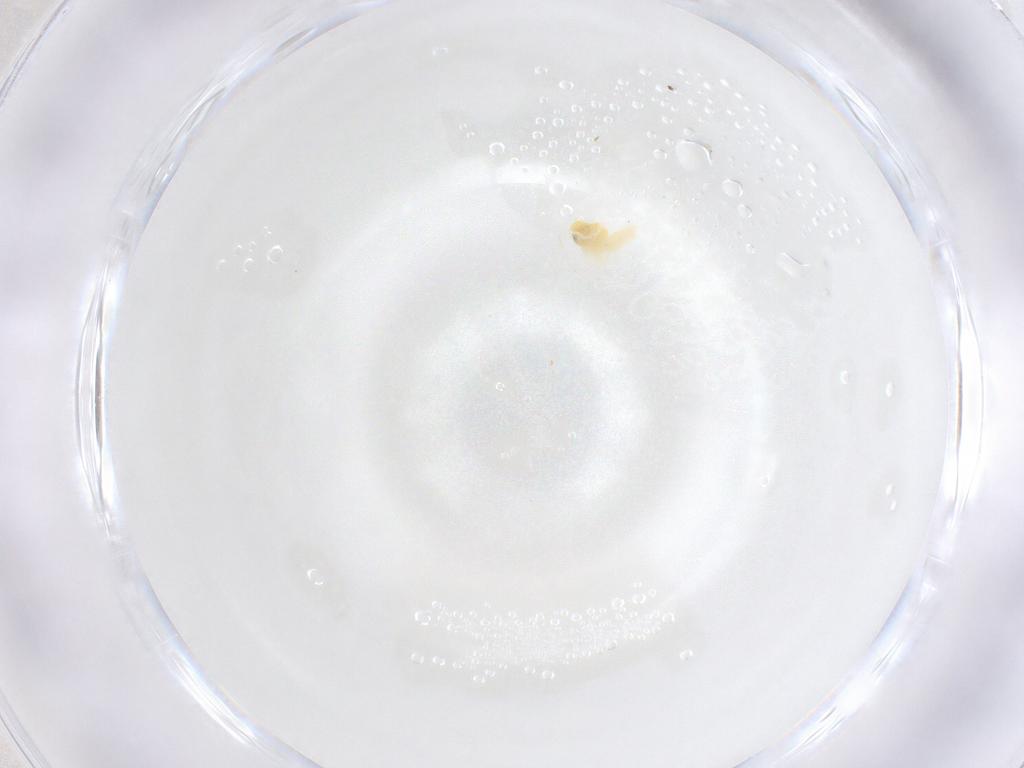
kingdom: Animalia
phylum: Arthropoda
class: Insecta
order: Hemiptera
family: Aleyrodidae
